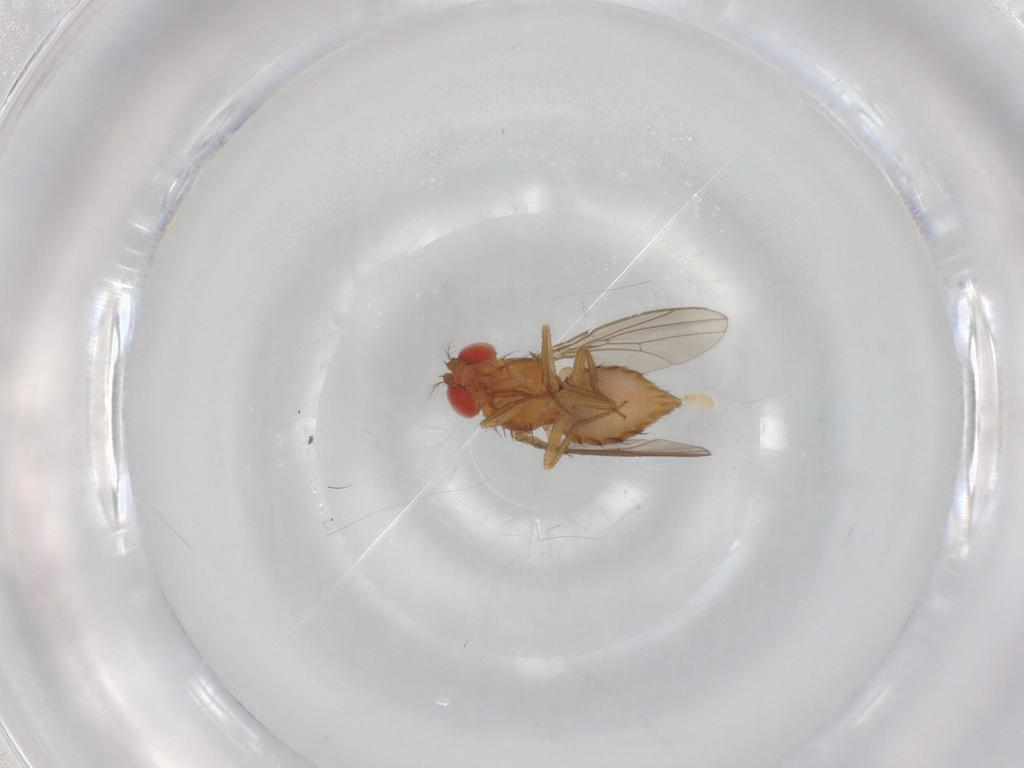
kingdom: Animalia
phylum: Arthropoda
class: Insecta
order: Diptera
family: Drosophilidae
